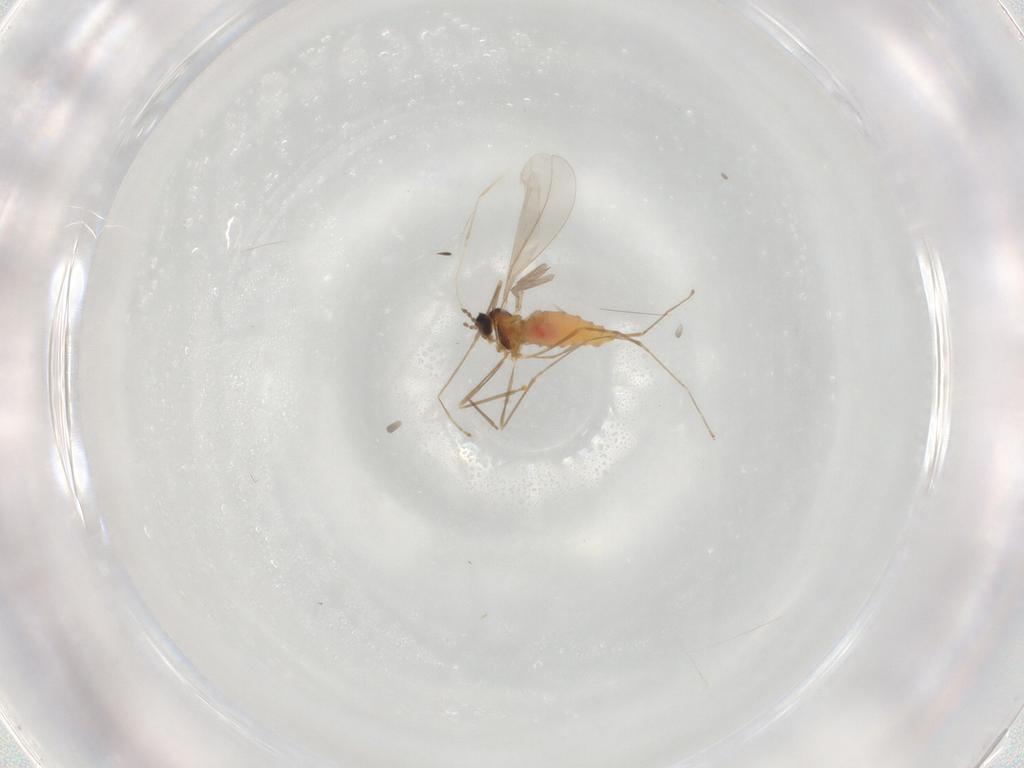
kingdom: Animalia
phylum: Arthropoda
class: Insecta
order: Diptera
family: Cecidomyiidae
